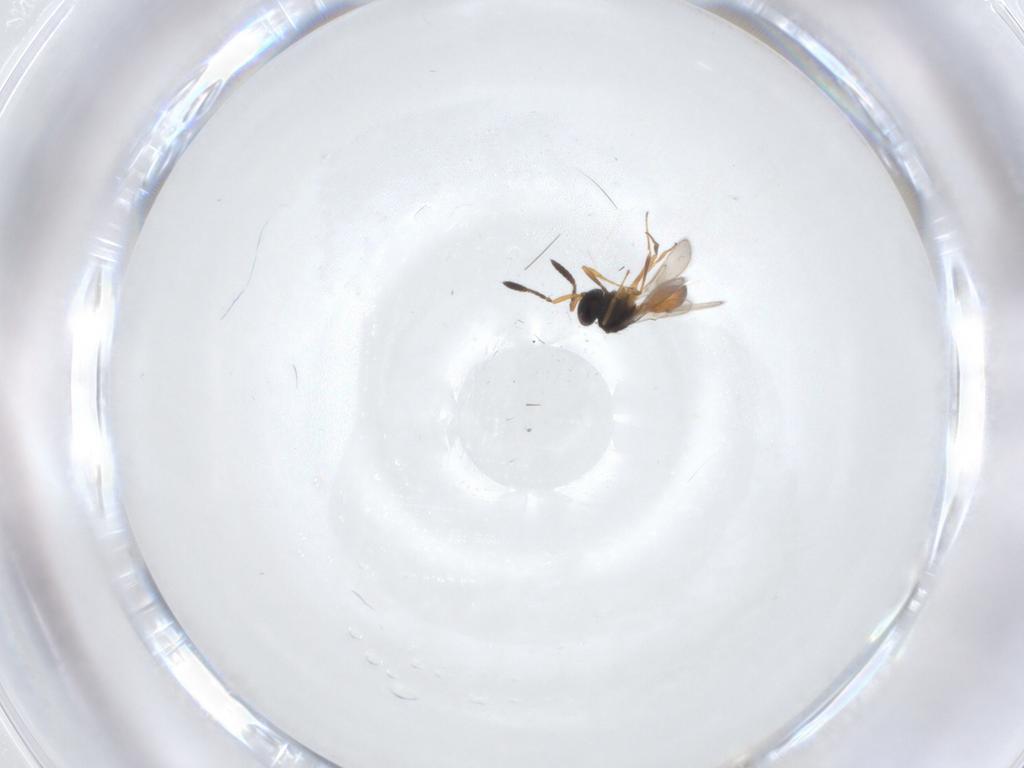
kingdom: Animalia
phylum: Arthropoda
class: Insecta
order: Hymenoptera
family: Scelionidae
